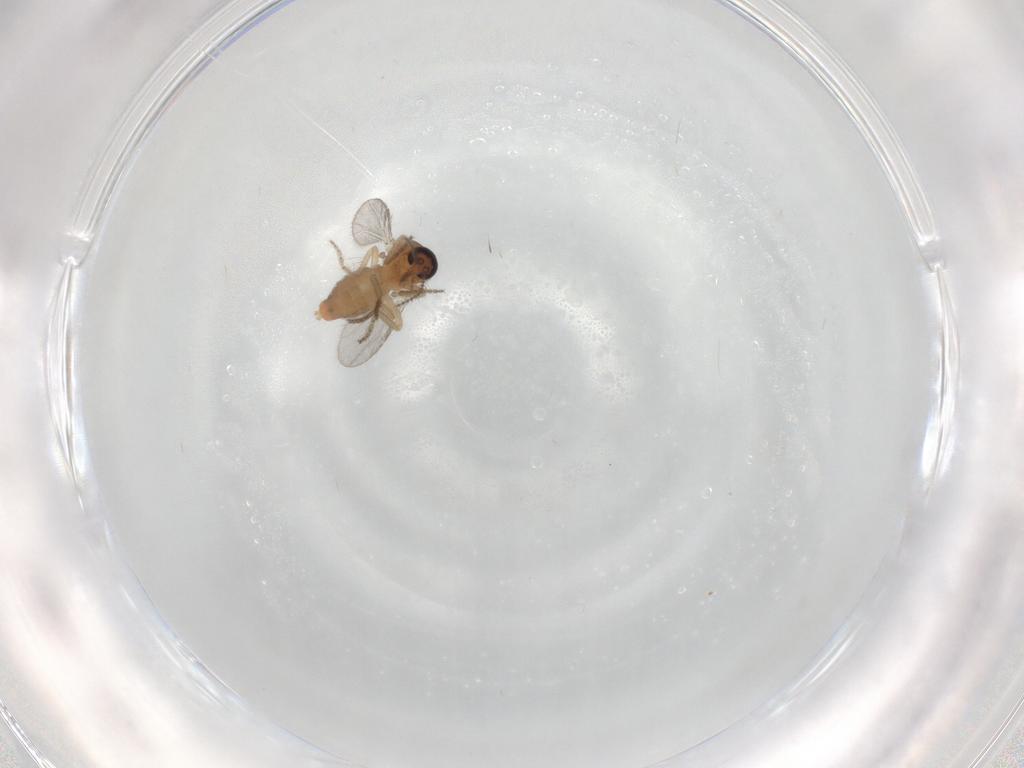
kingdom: Animalia
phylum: Arthropoda
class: Insecta
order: Diptera
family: Ceratopogonidae
